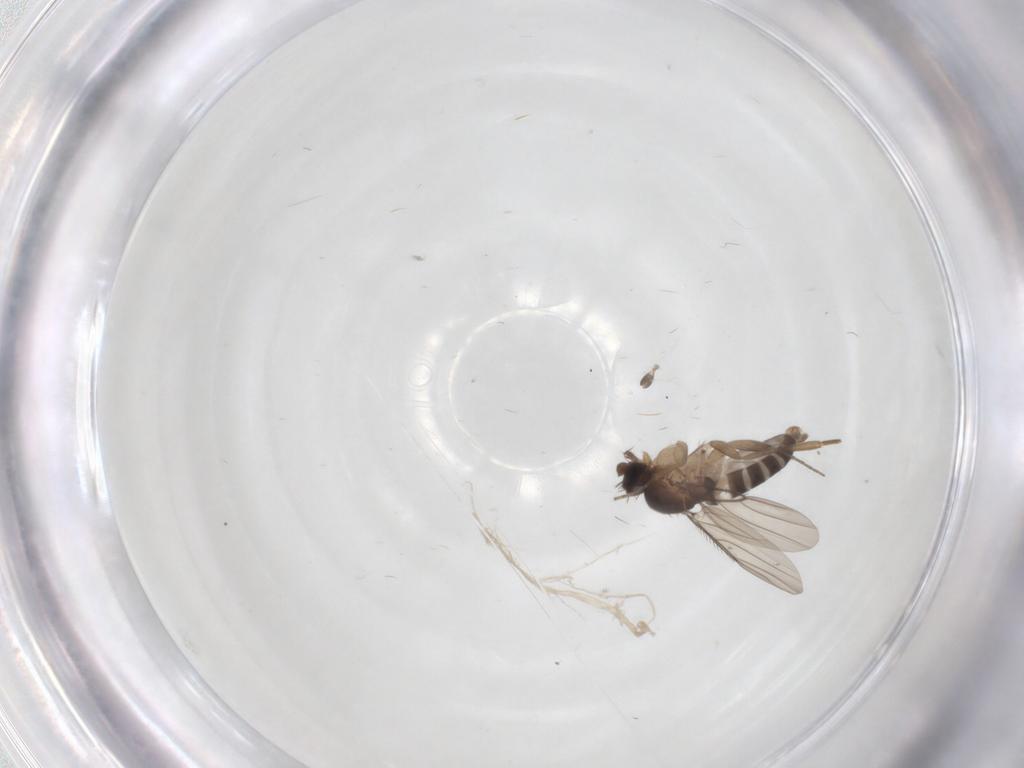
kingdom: Animalia
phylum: Arthropoda
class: Insecta
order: Diptera
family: Phoridae
